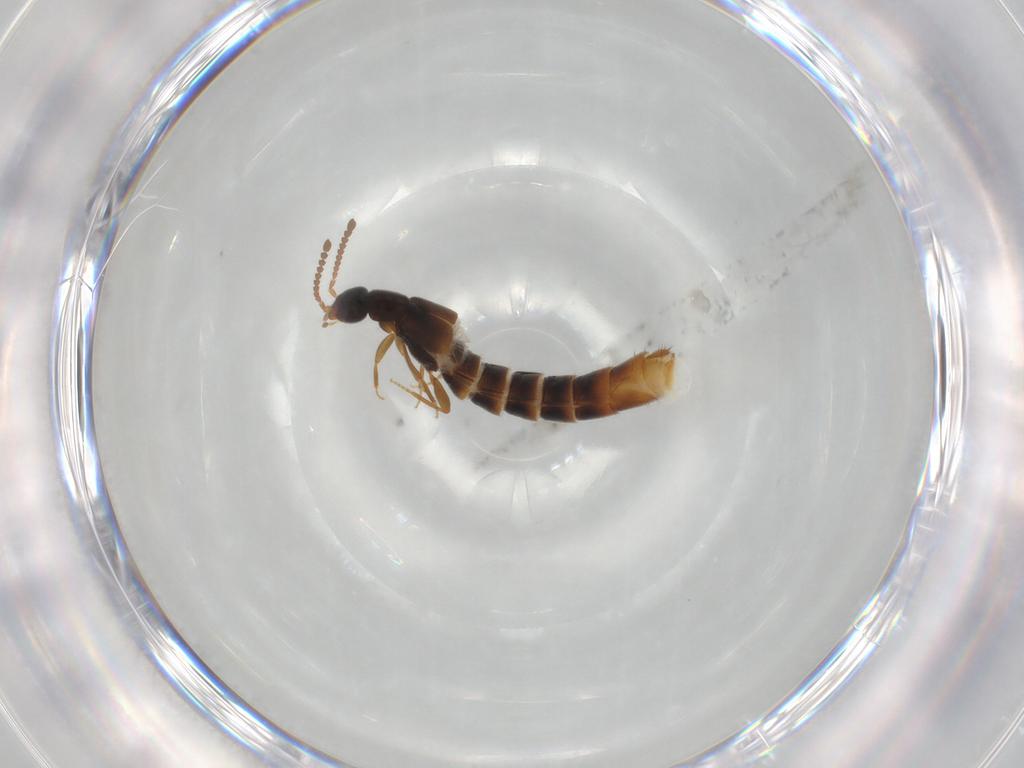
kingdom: Animalia
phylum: Arthropoda
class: Insecta
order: Coleoptera
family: Staphylinidae
